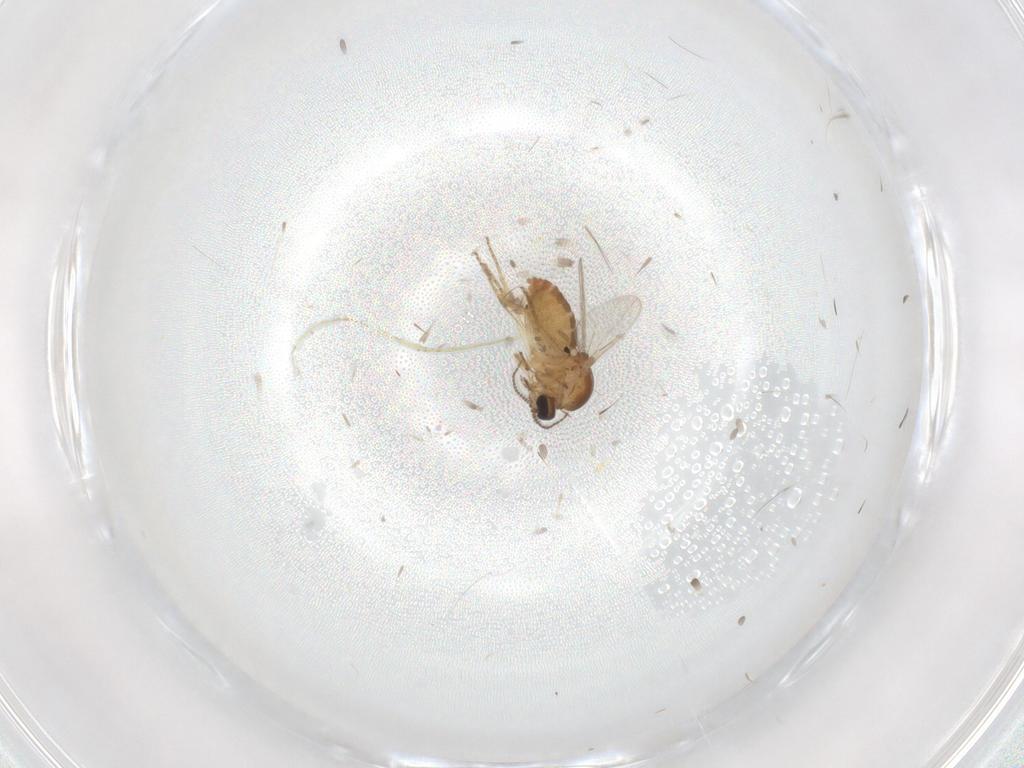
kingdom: Animalia
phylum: Arthropoda
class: Insecta
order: Diptera
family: Ceratopogonidae
